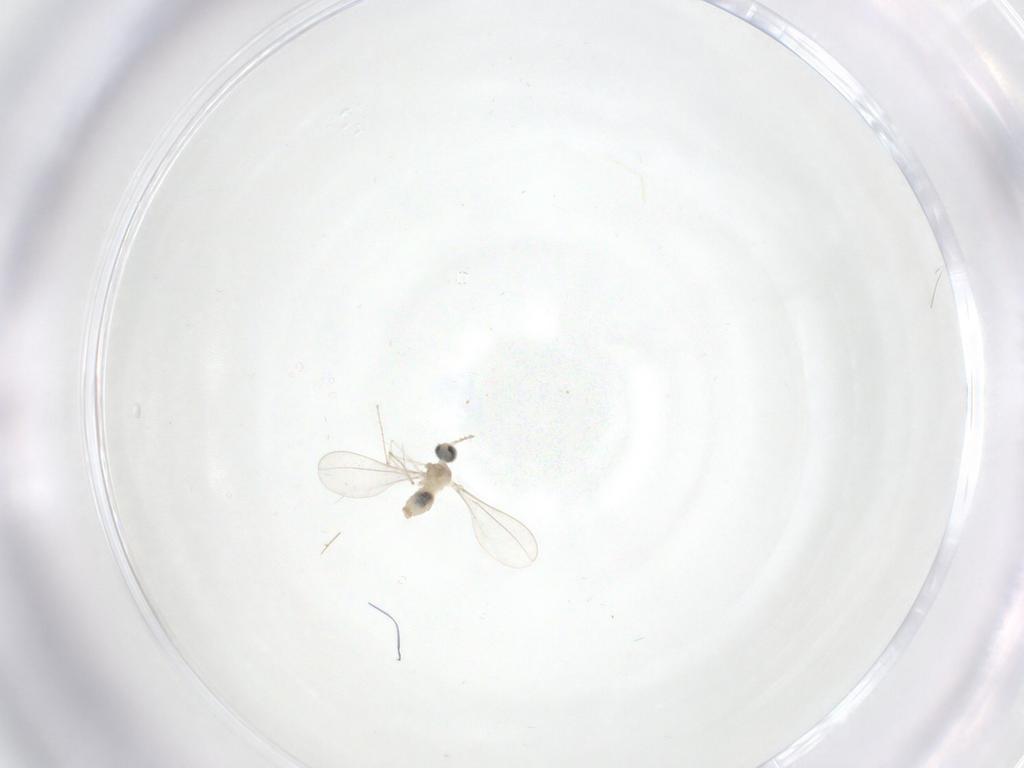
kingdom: Animalia
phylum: Arthropoda
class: Insecta
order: Diptera
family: Cecidomyiidae
